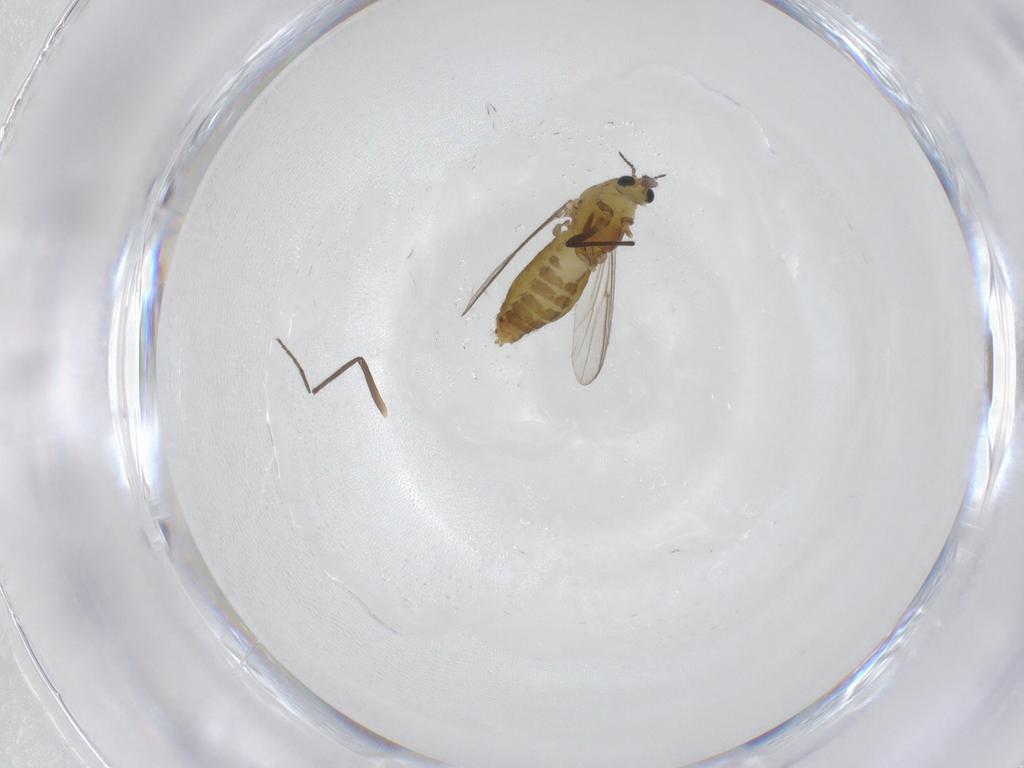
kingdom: Animalia
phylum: Arthropoda
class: Insecta
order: Diptera
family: Chironomidae
